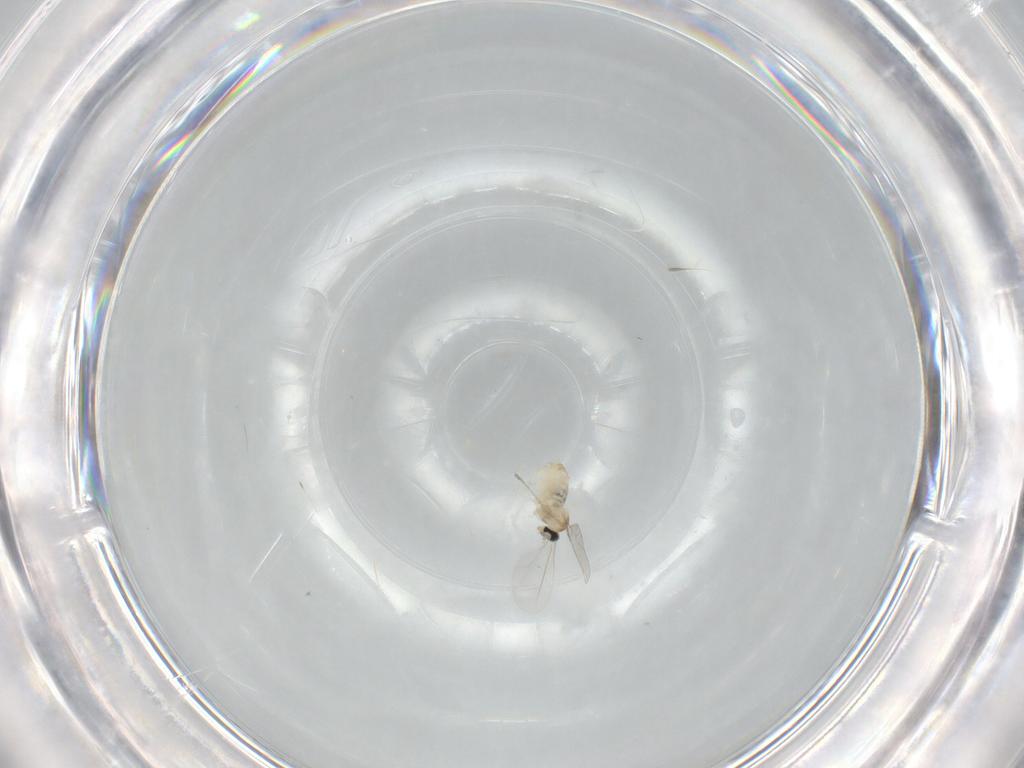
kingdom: Animalia
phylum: Arthropoda
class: Insecta
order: Diptera
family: Cecidomyiidae
